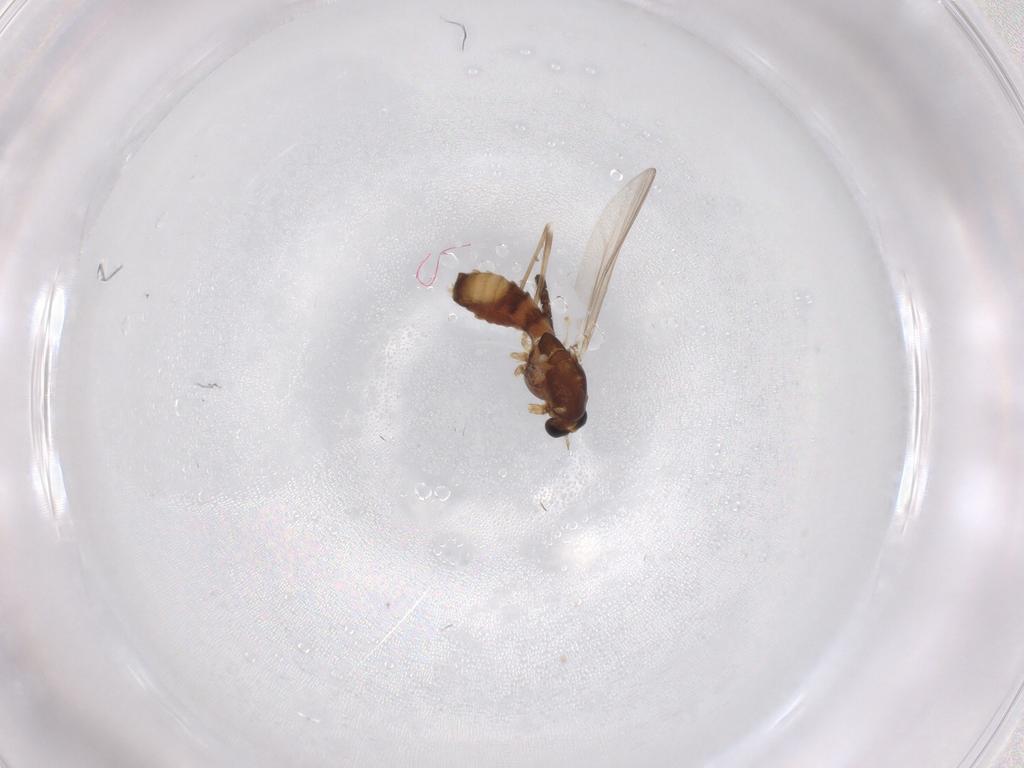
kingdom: Animalia
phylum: Arthropoda
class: Insecta
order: Diptera
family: Chironomidae
